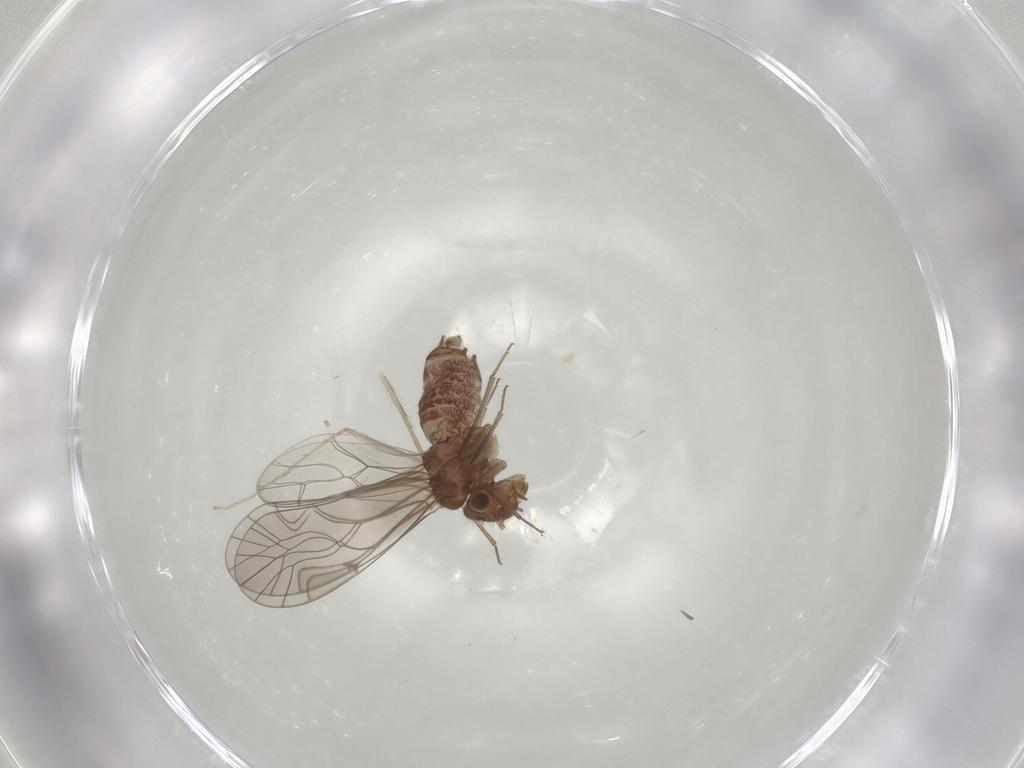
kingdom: Animalia
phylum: Arthropoda
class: Insecta
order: Psocodea
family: Lachesillidae
